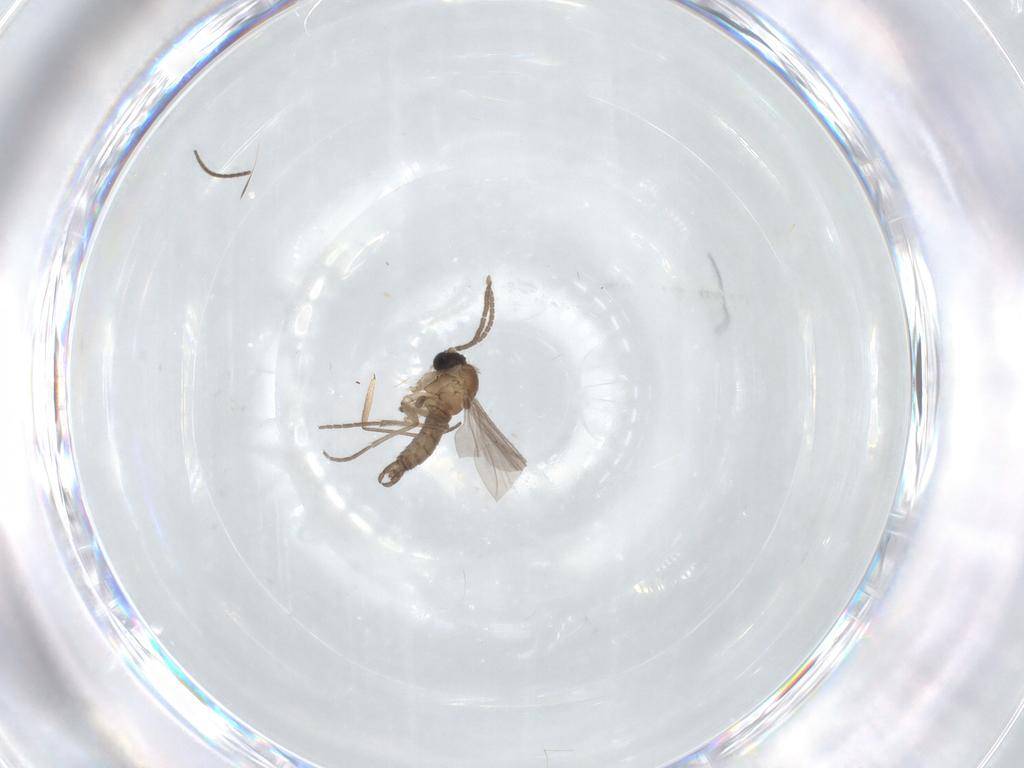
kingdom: Animalia
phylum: Arthropoda
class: Insecta
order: Diptera
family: Sciaridae
